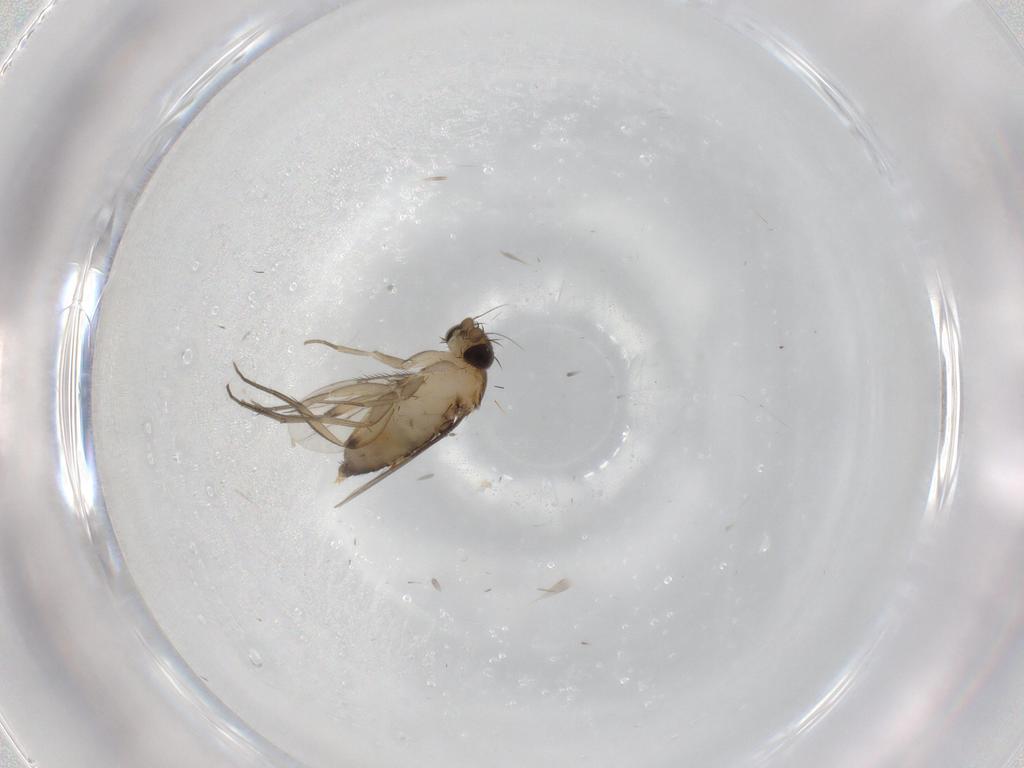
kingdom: Animalia
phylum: Arthropoda
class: Insecta
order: Diptera
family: Phoridae
